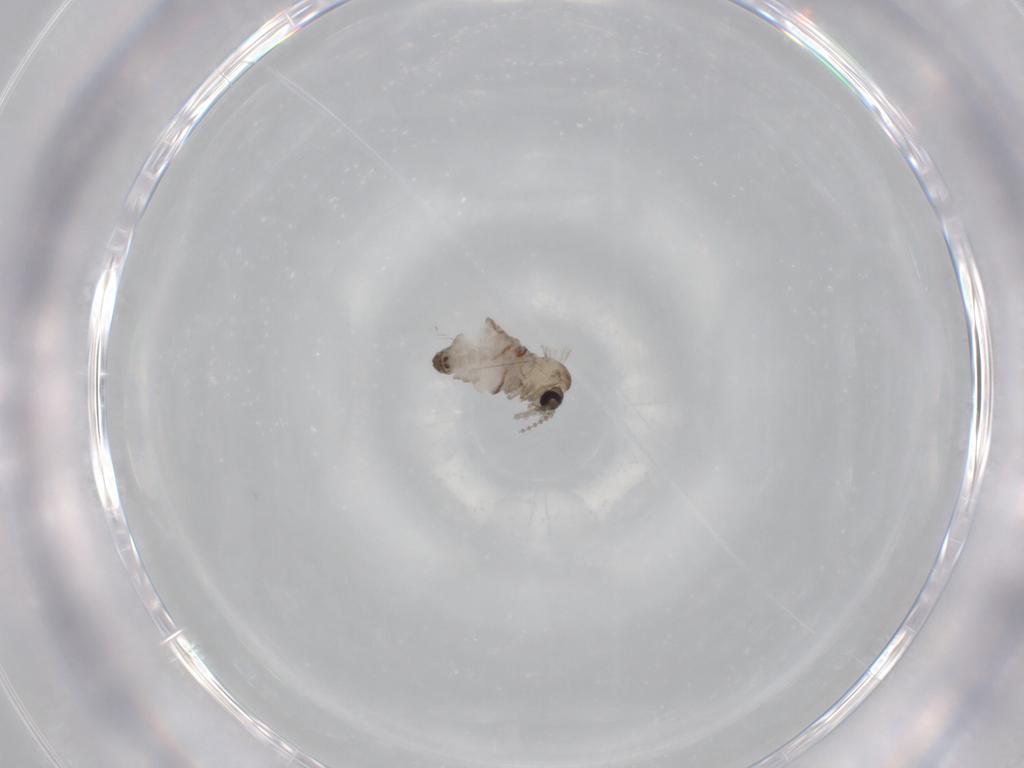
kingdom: Animalia
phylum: Arthropoda
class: Insecta
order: Diptera
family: Psychodidae
